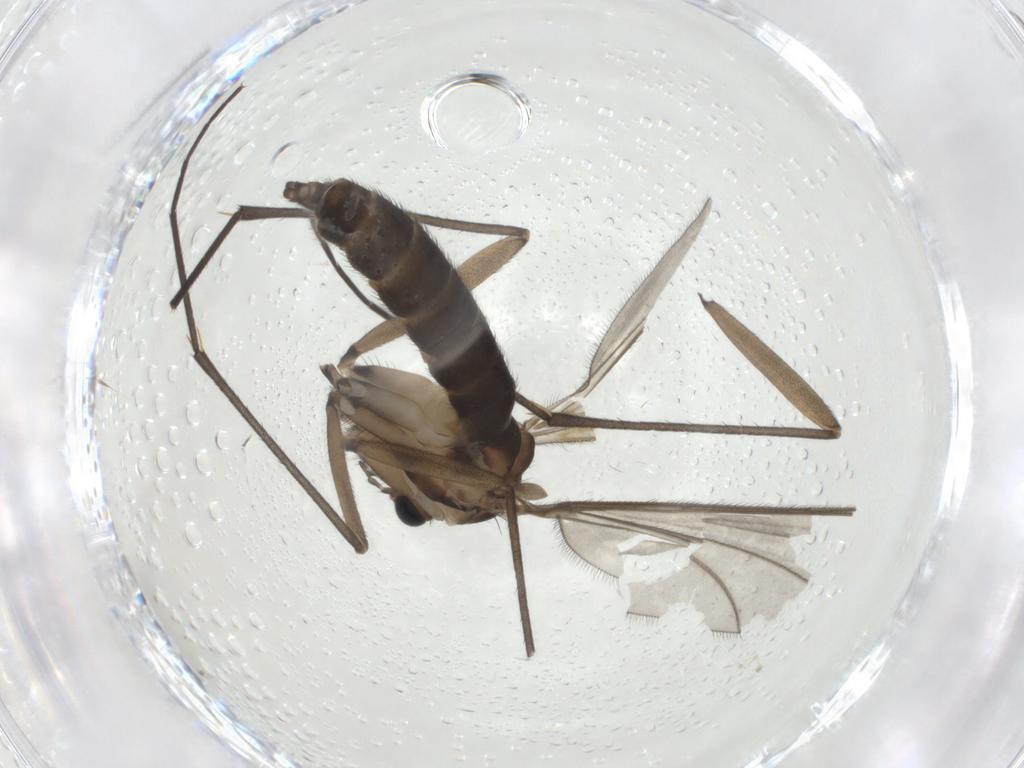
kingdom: Animalia
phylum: Arthropoda
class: Insecta
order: Diptera
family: Sciaridae
